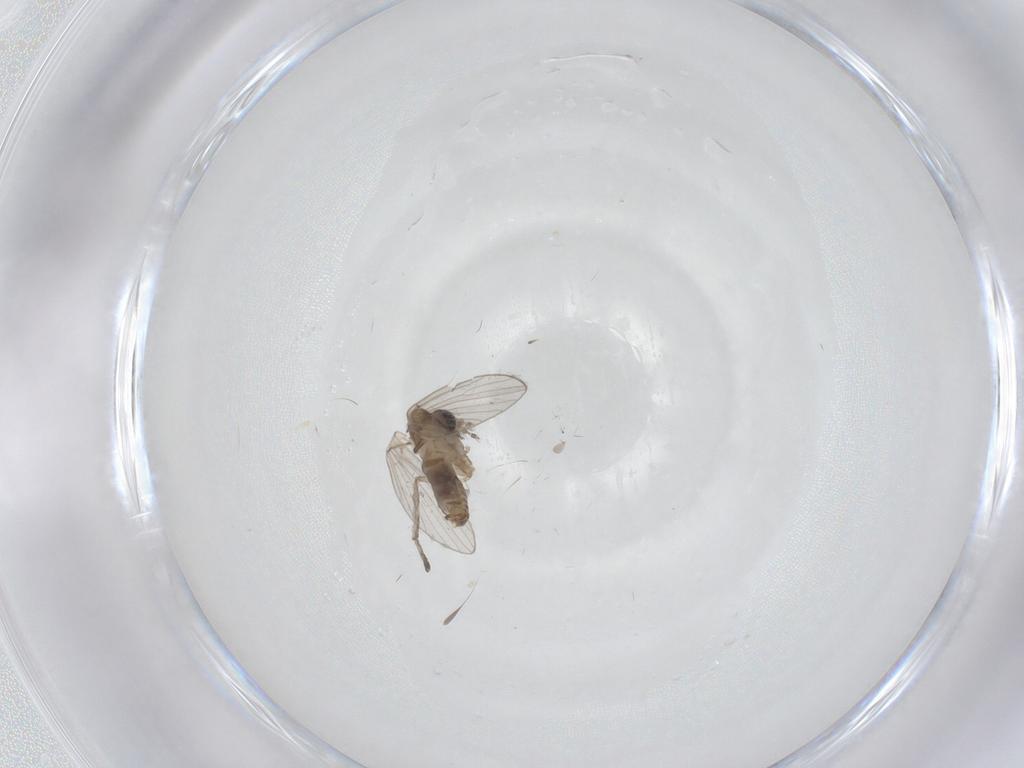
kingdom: Animalia
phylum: Arthropoda
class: Insecta
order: Diptera
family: Psychodidae
